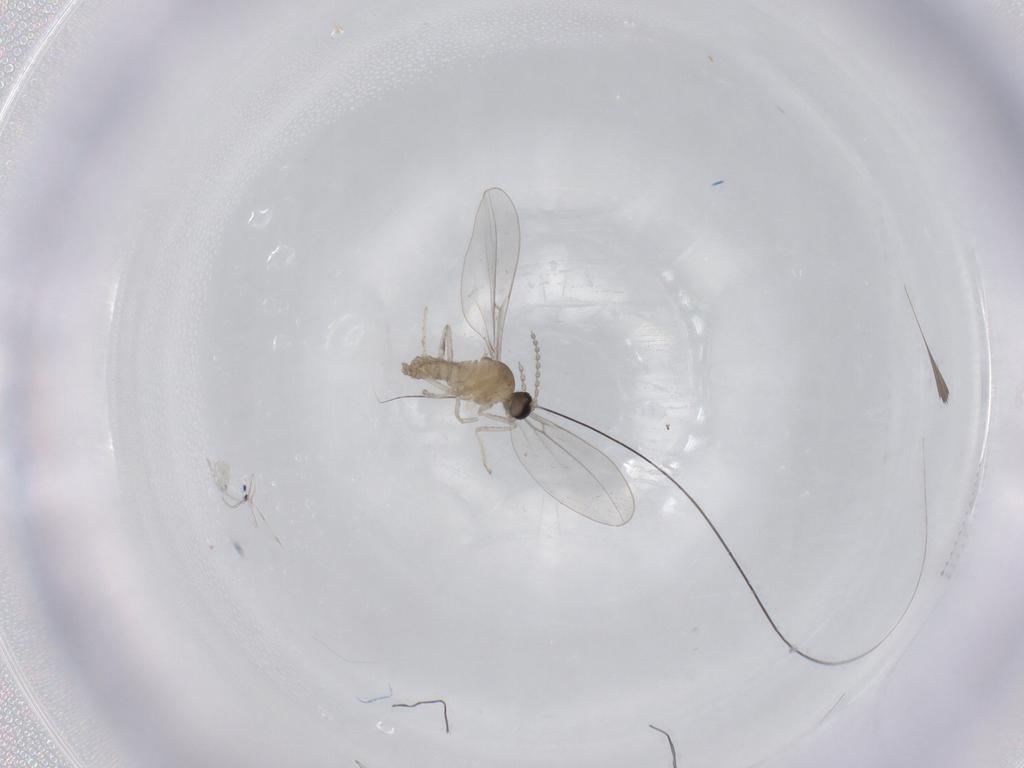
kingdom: Animalia
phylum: Arthropoda
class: Insecta
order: Diptera
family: Cecidomyiidae
